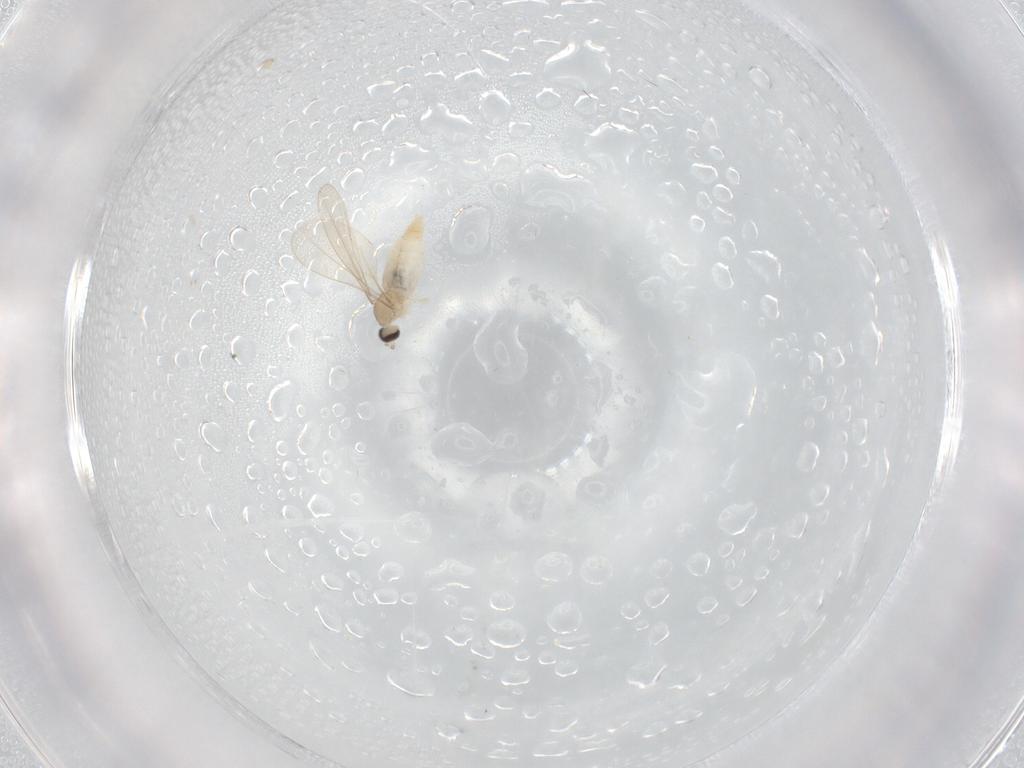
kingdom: Animalia
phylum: Arthropoda
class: Insecta
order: Diptera
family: Cecidomyiidae
